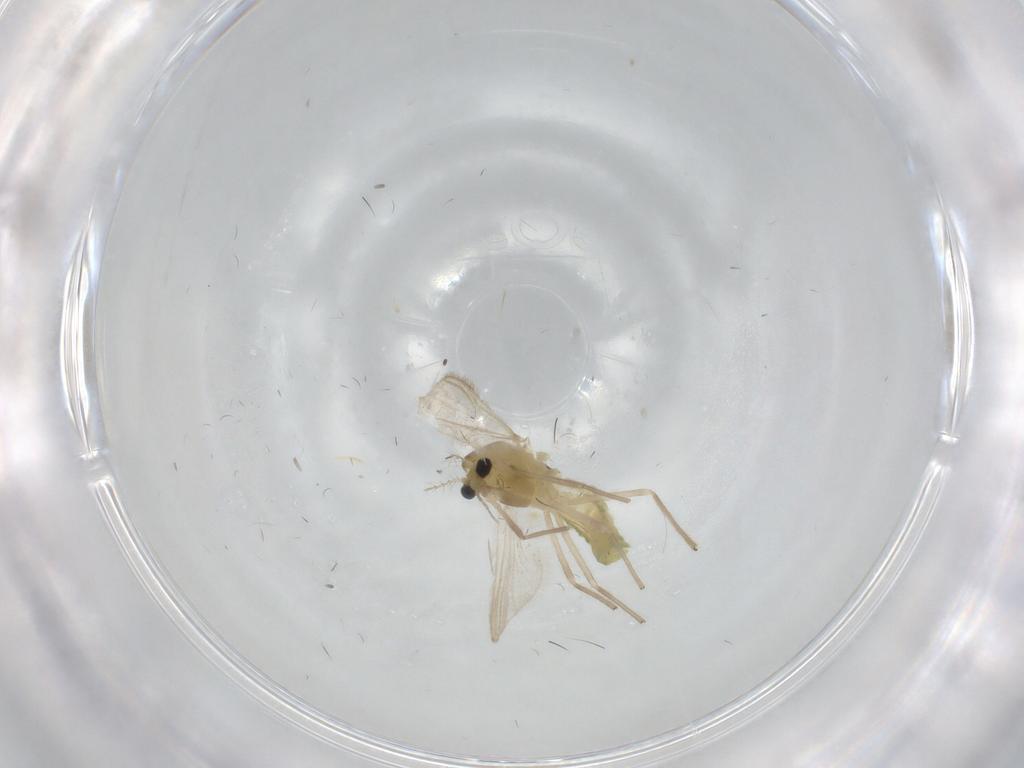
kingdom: Animalia
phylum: Arthropoda
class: Insecta
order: Diptera
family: Chironomidae
